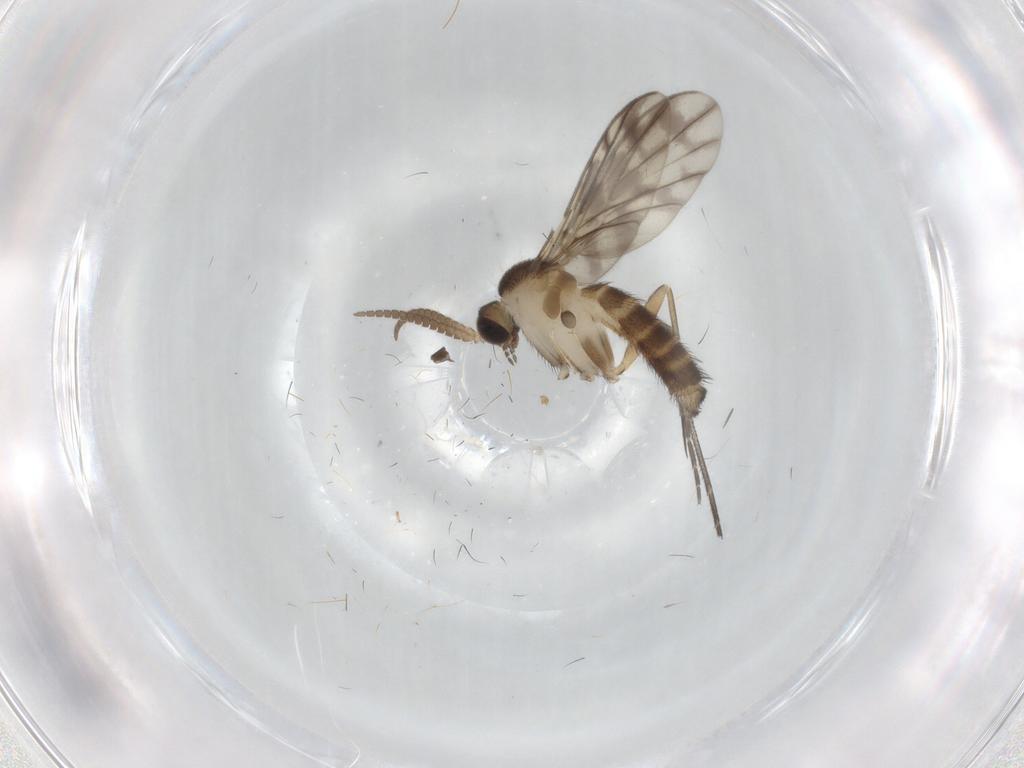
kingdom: Animalia
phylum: Arthropoda
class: Insecta
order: Diptera
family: Keroplatidae
